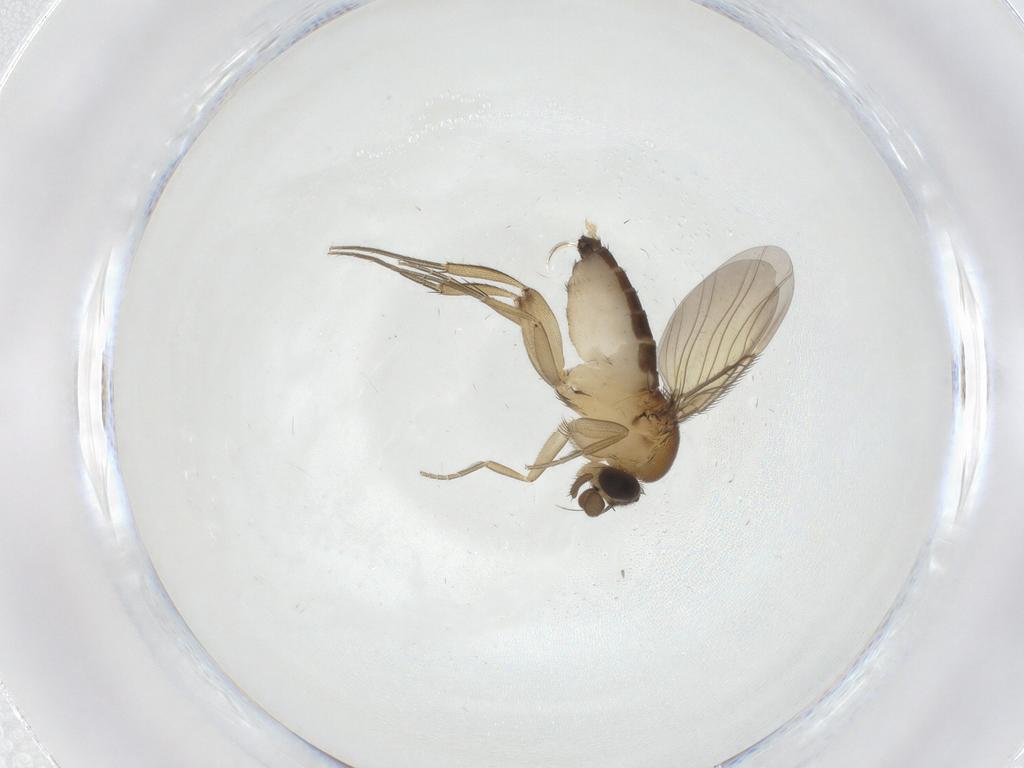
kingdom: Animalia
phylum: Arthropoda
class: Insecta
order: Diptera
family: Phoridae
